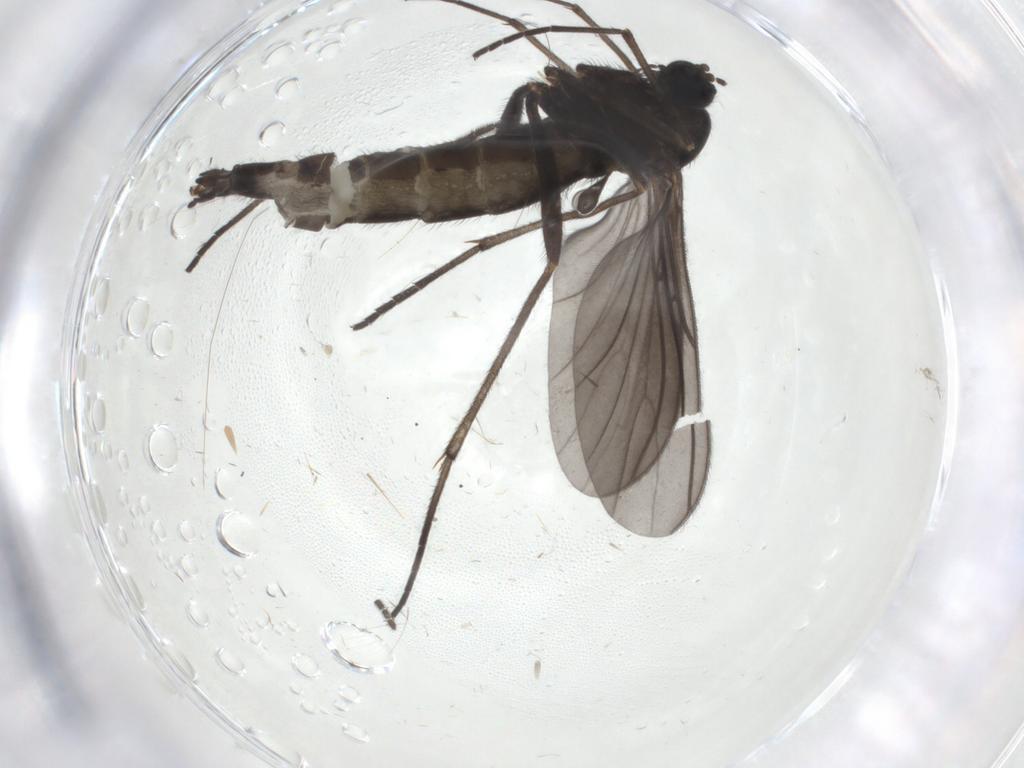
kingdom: Animalia
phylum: Arthropoda
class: Insecta
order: Diptera
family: Sciaridae
